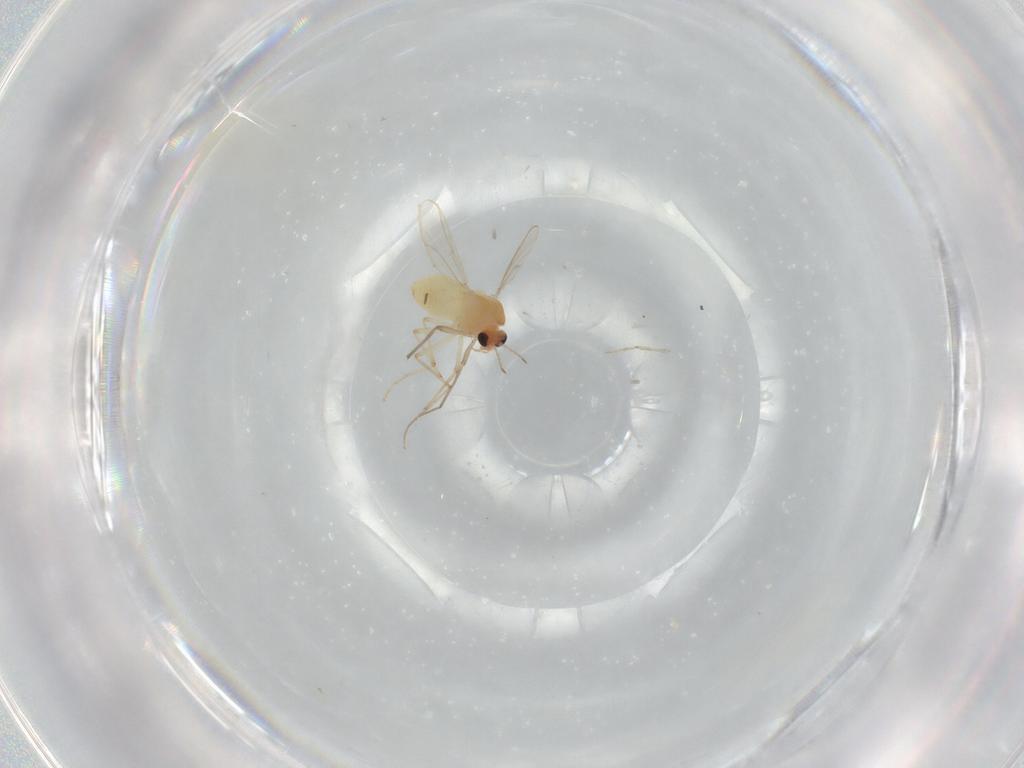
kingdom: Animalia
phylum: Arthropoda
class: Insecta
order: Diptera
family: Chironomidae
